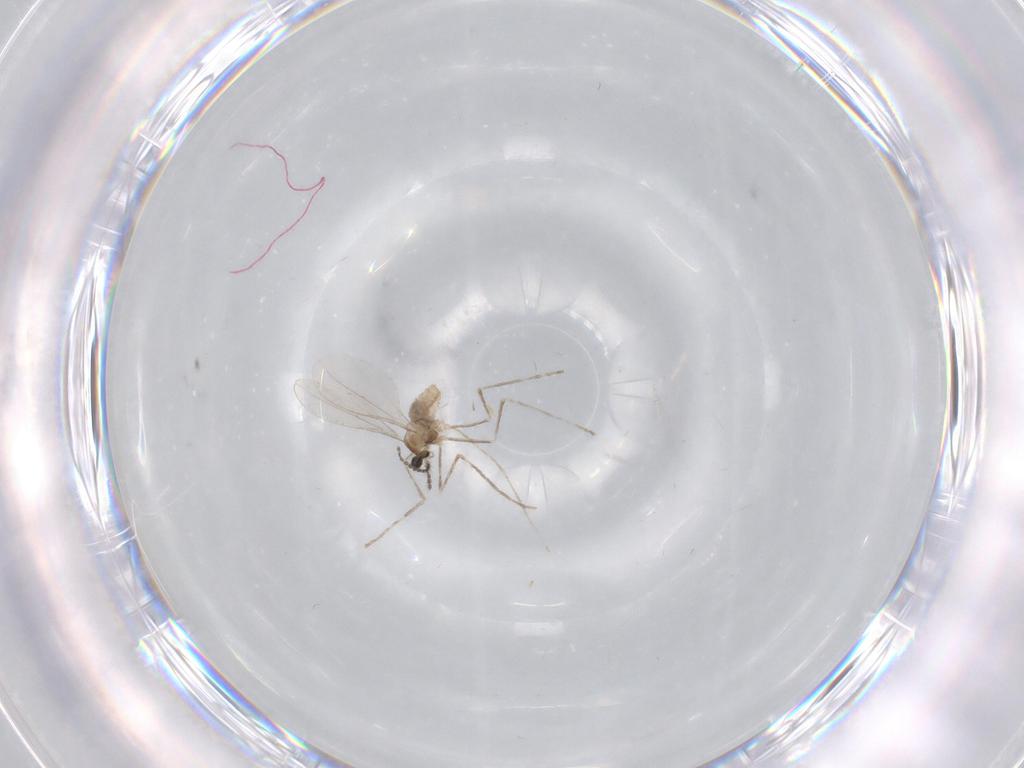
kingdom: Animalia
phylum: Arthropoda
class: Insecta
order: Diptera
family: Cecidomyiidae
